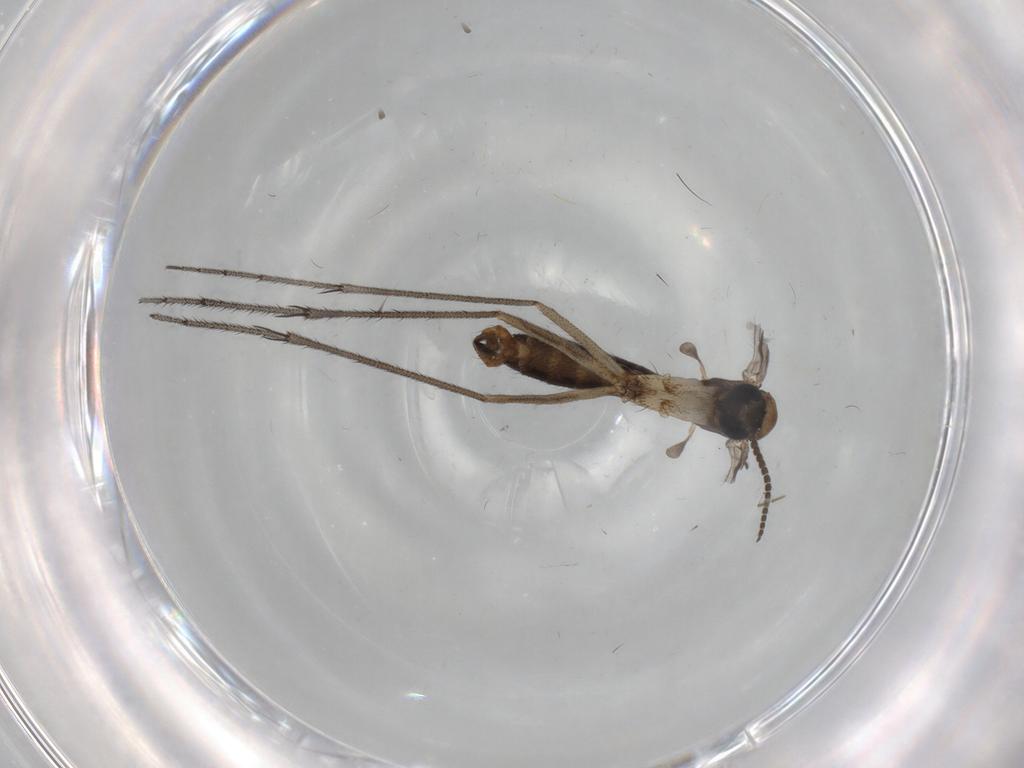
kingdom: Animalia
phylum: Arthropoda
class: Insecta
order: Diptera
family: Ditomyiidae
